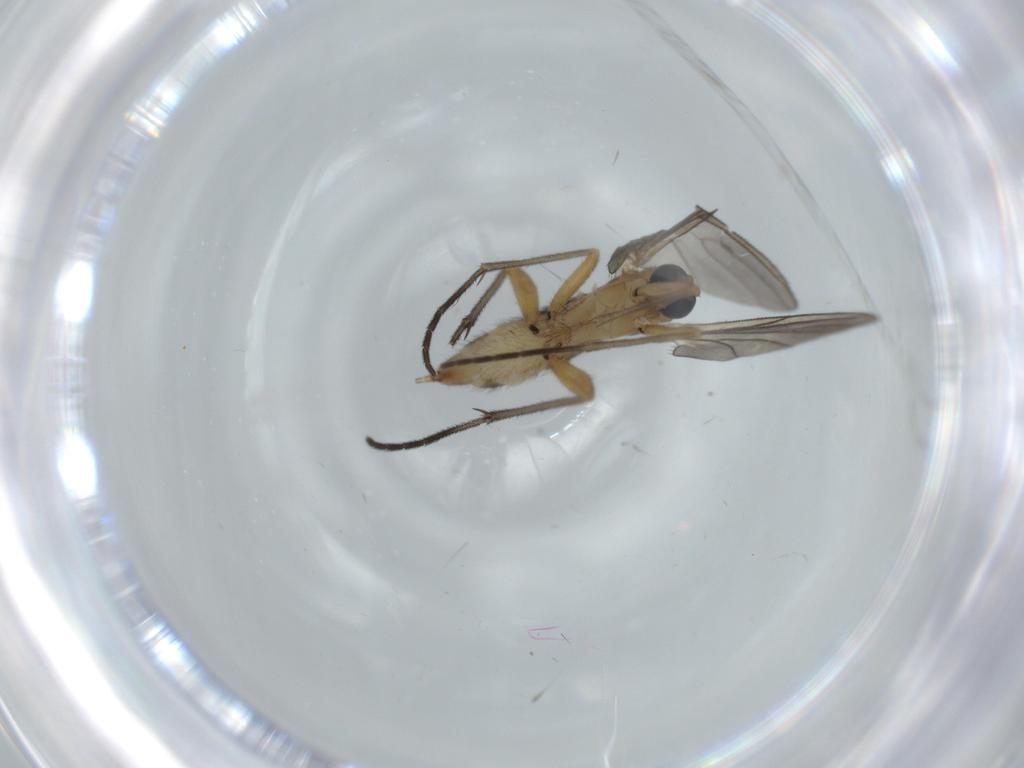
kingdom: Animalia
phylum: Arthropoda
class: Insecta
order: Diptera
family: Sciaridae
